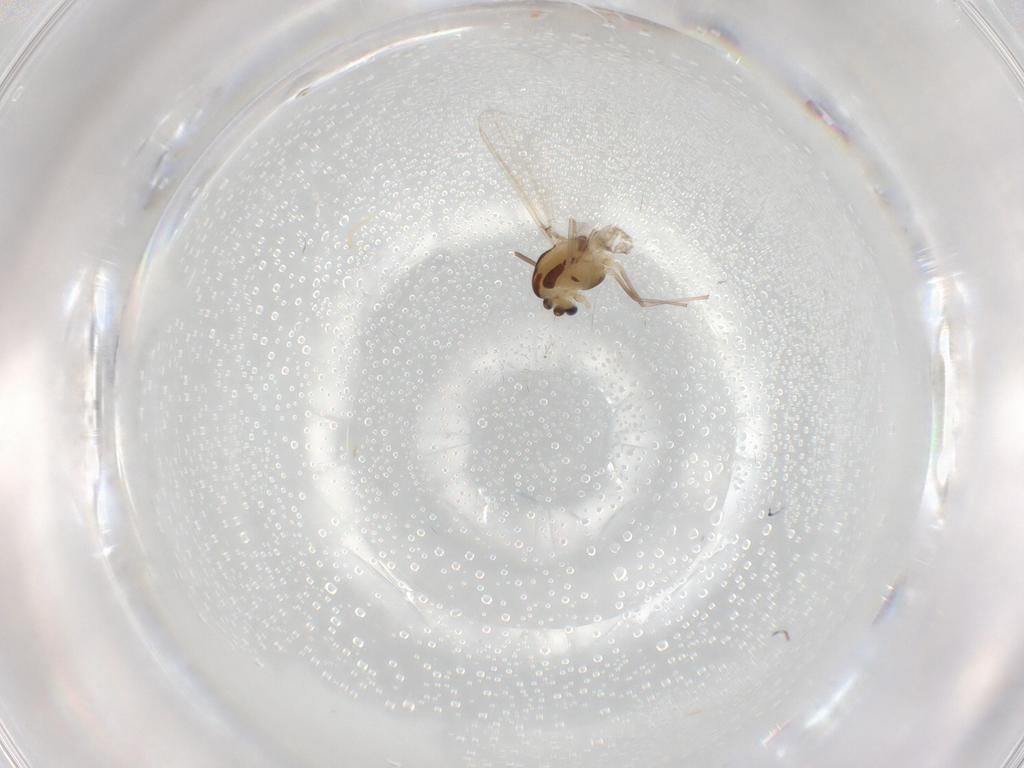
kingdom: Animalia
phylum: Arthropoda
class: Insecta
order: Diptera
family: Chironomidae
